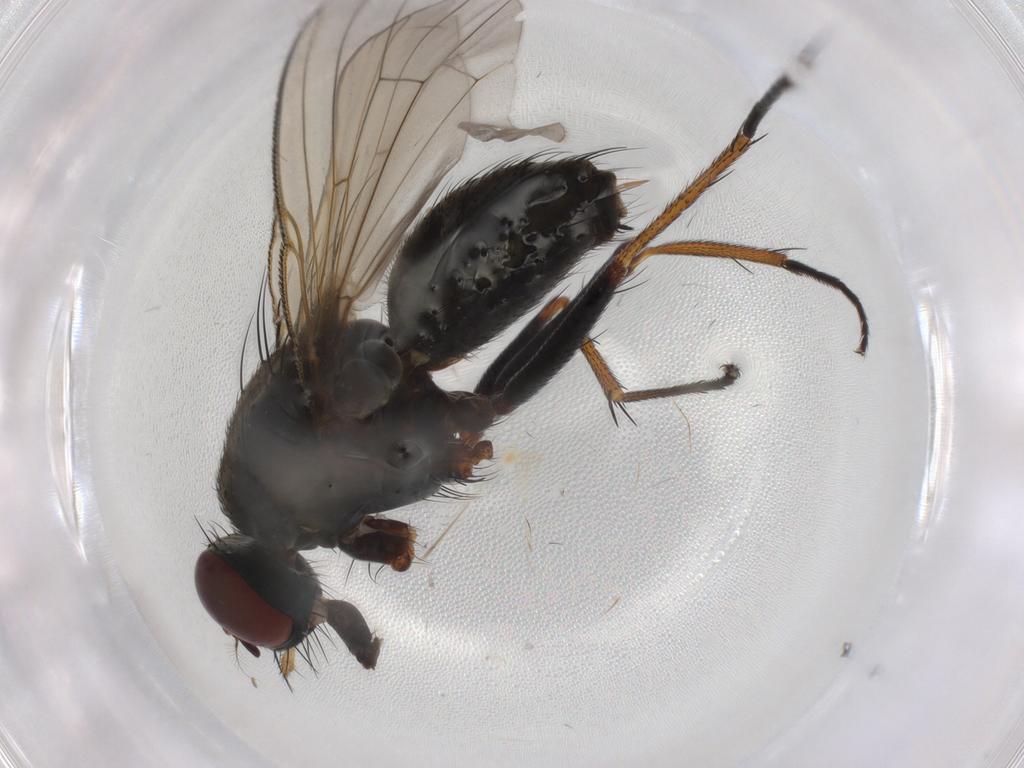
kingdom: Animalia
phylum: Arthropoda
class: Insecta
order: Diptera
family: Muscidae
